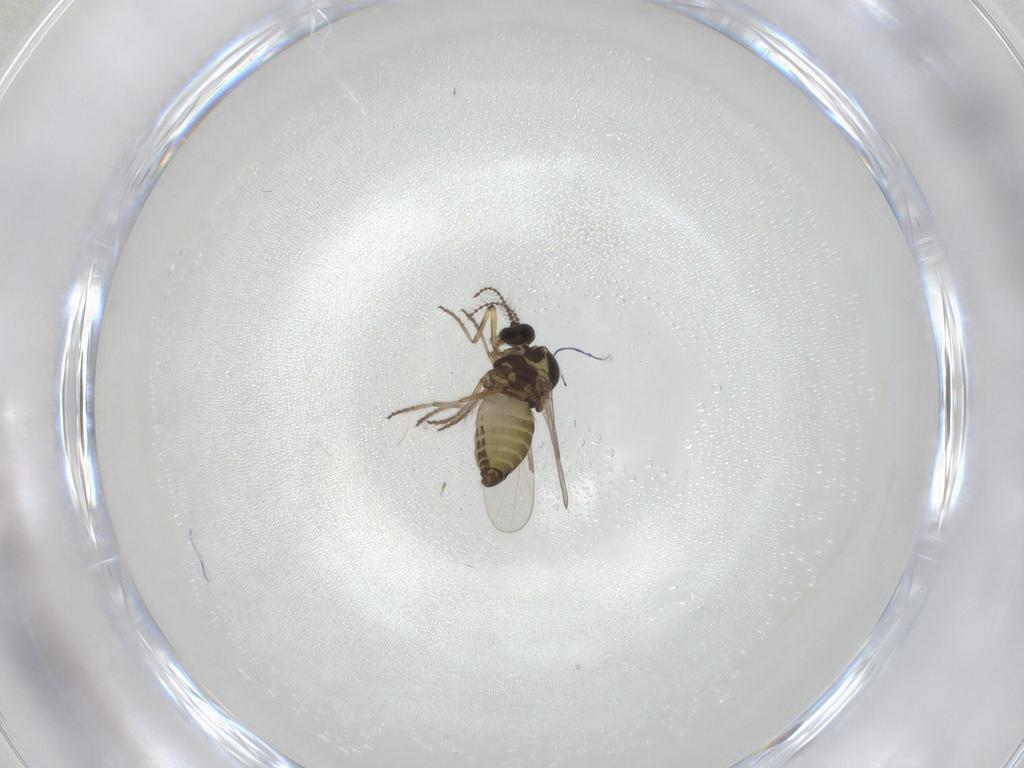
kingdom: Animalia
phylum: Arthropoda
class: Insecta
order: Diptera
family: Ceratopogonidae
